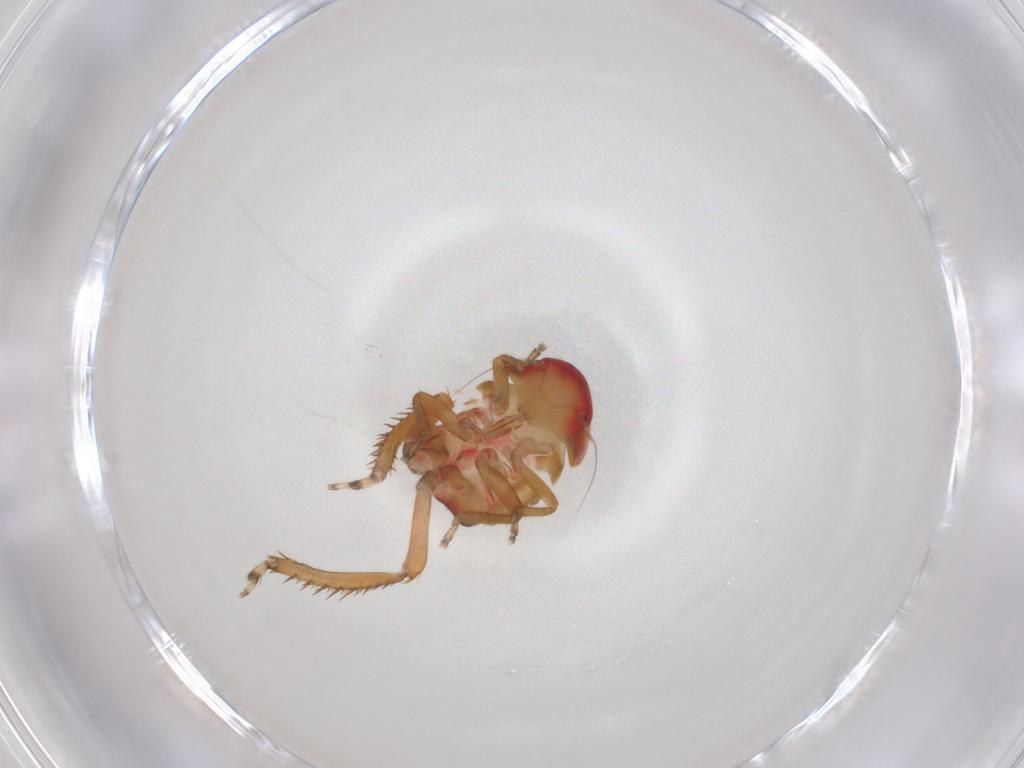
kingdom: Animalia
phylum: Arthropoda
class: Insecta
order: Hemiptera
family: Cicadellidae
